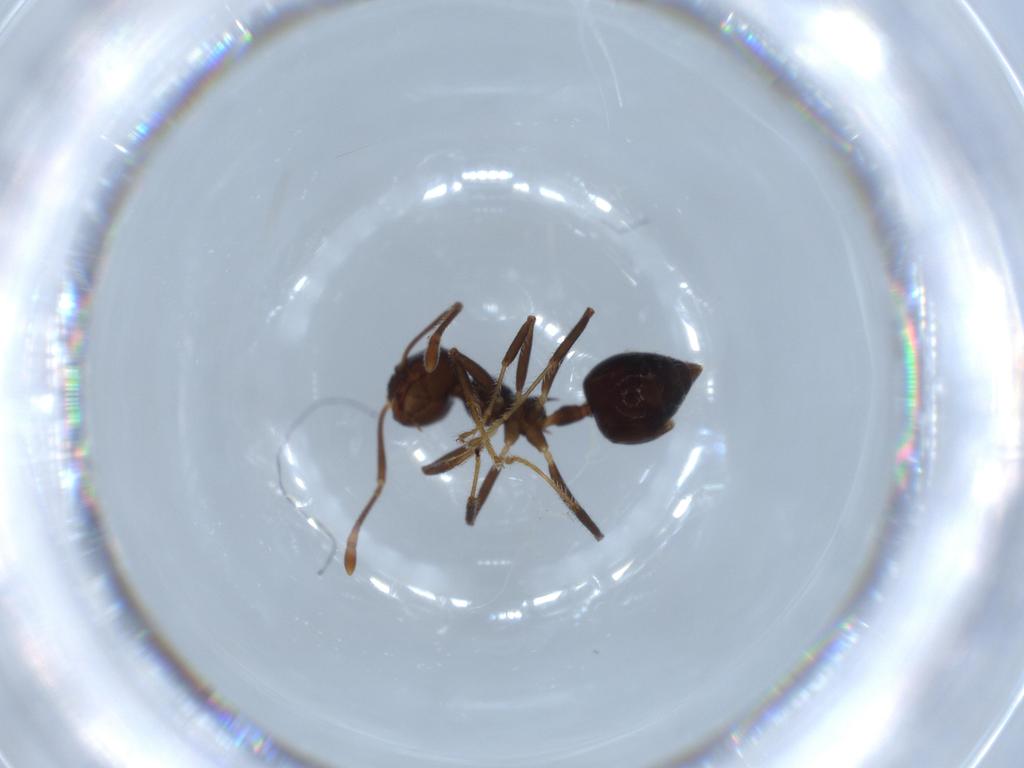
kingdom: Animalia
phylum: Arthropoda
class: Insecta
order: Hymenoptera
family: Formicidae
